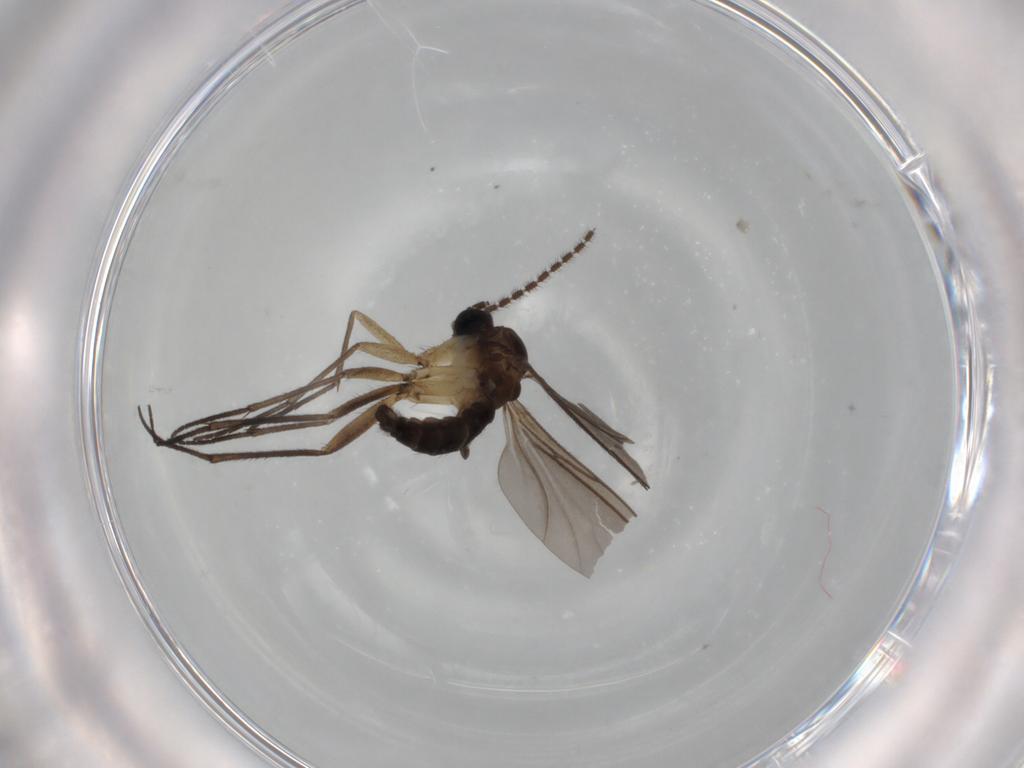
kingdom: Animalia
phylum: Arthropoda
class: Insecta
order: Diptera
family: Sciaridae
